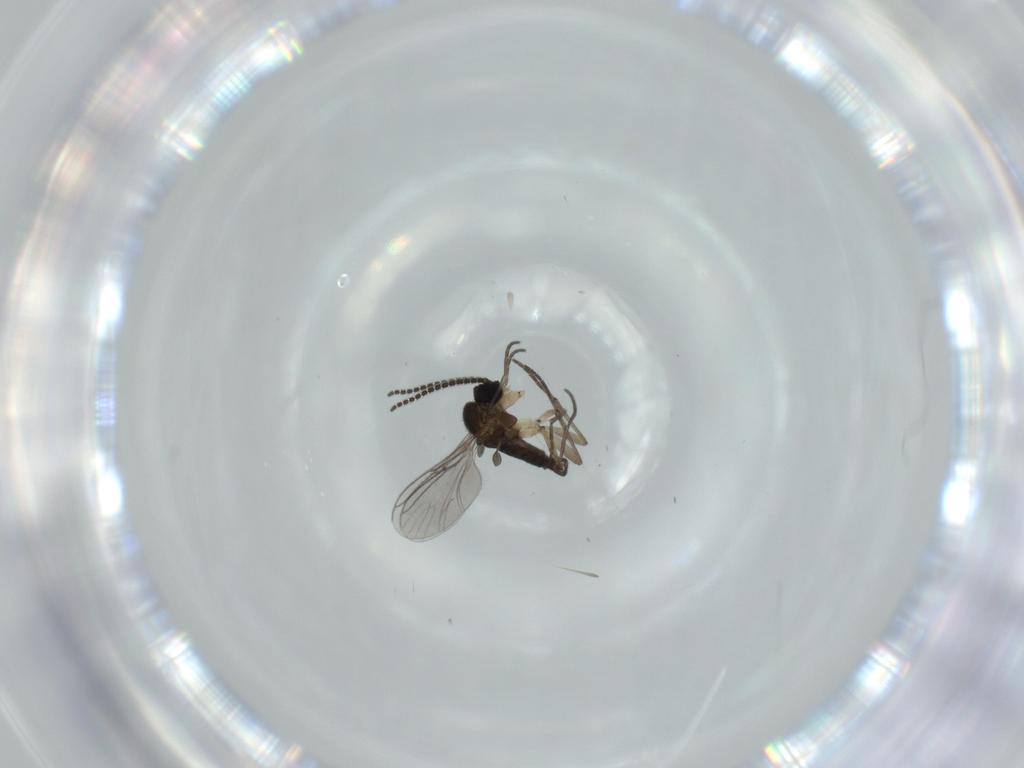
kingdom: Animalia
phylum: Arthropoda
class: Insecta
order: Diptera
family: Sciaridae
